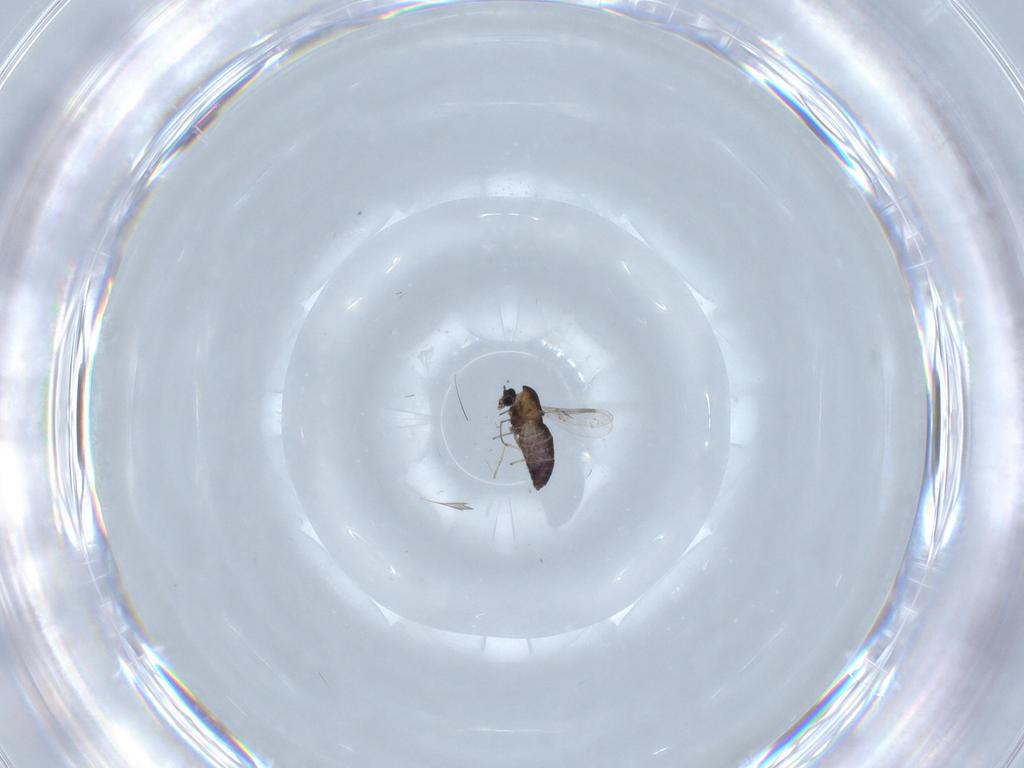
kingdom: Animalia
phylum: Arthropoda
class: Insecta
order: Diptera
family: Chironomidae
